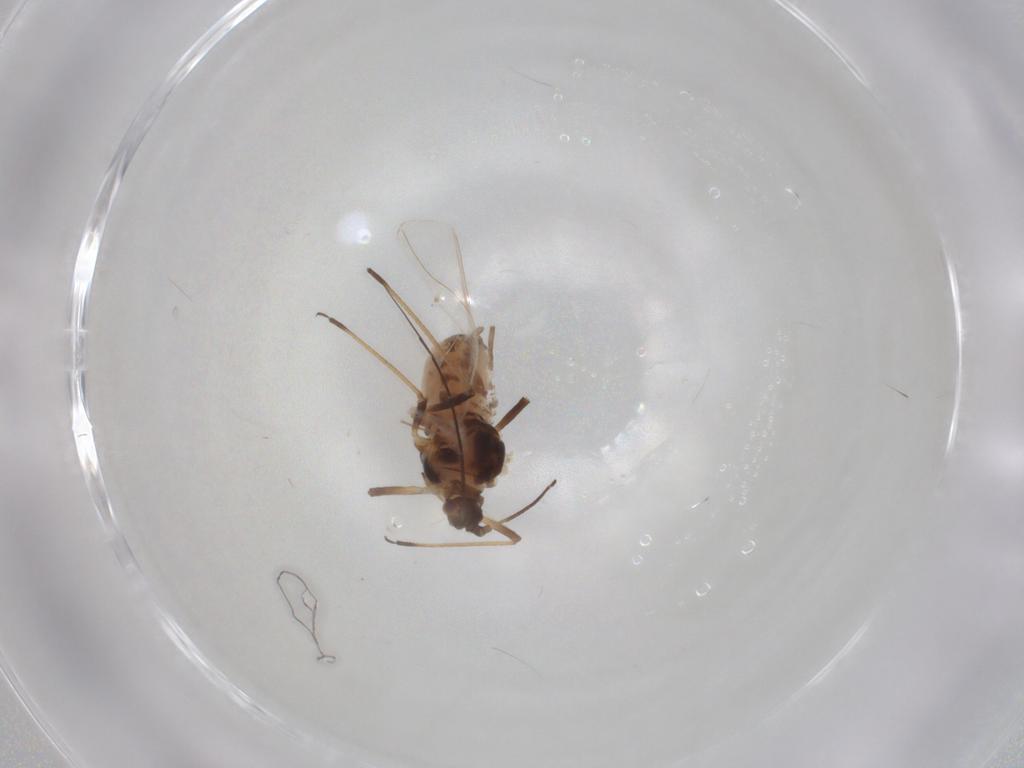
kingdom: Animalia
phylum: Arthropoda
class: Insecta
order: Hemiptera
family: Aphididae
